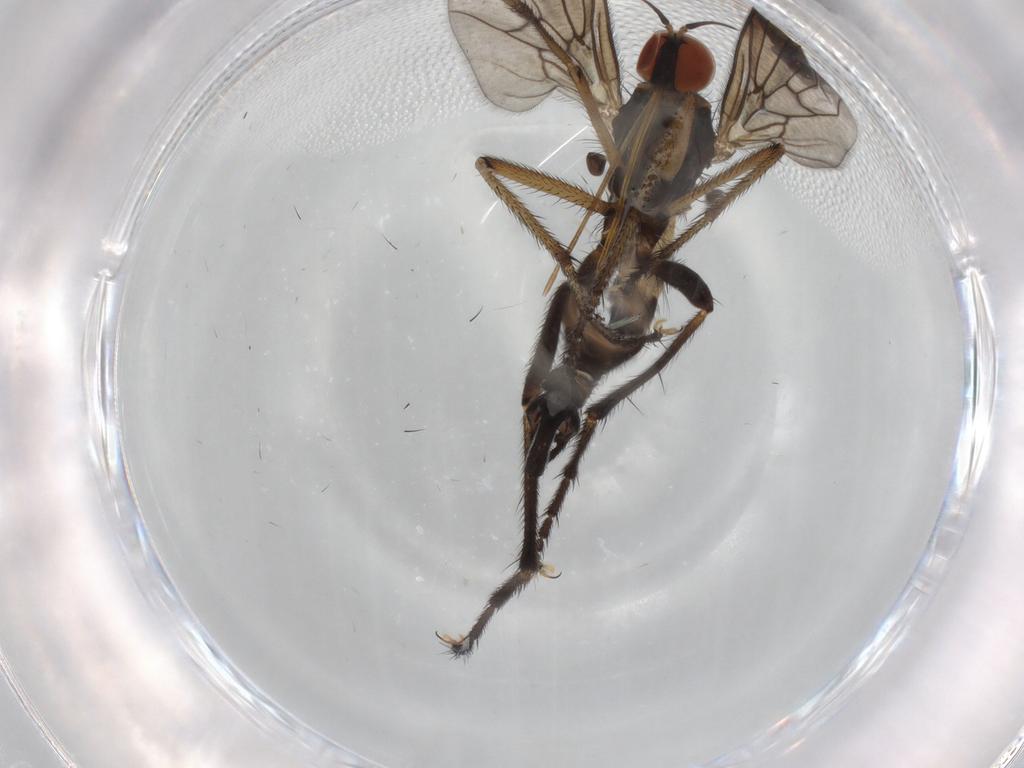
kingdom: Animalia
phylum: Arthropoda
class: Insecta
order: Diptera
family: Empididae
